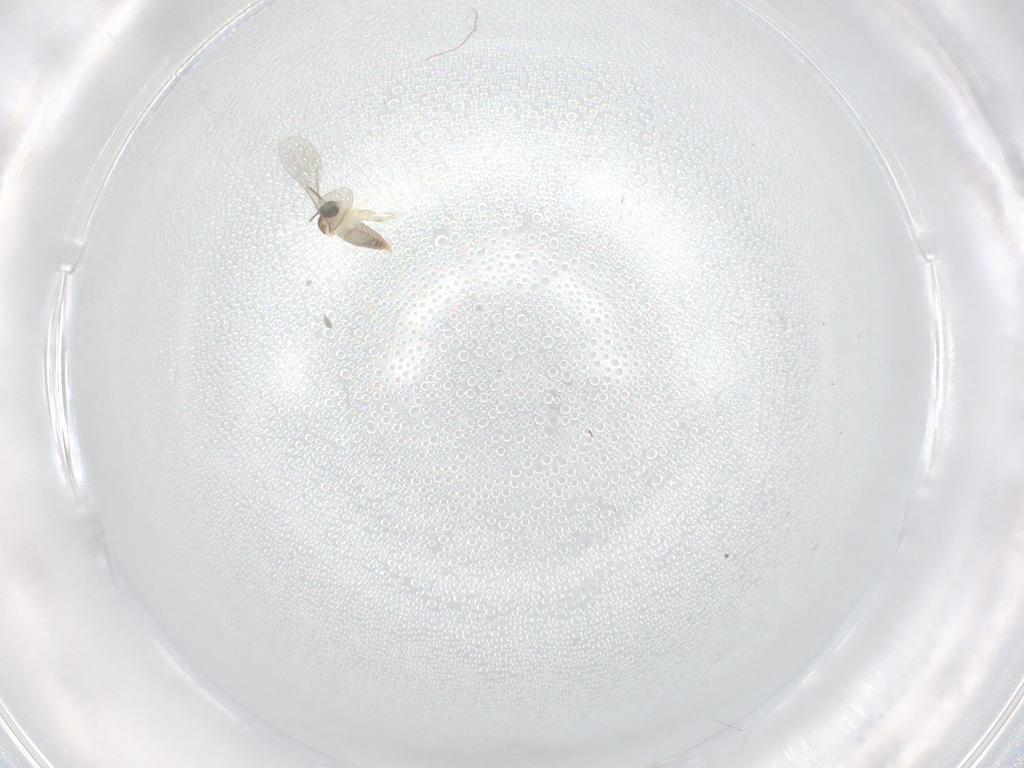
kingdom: Animalia
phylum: Arthropoda
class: Insecta
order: Diptera
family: Cecidomyiidae
